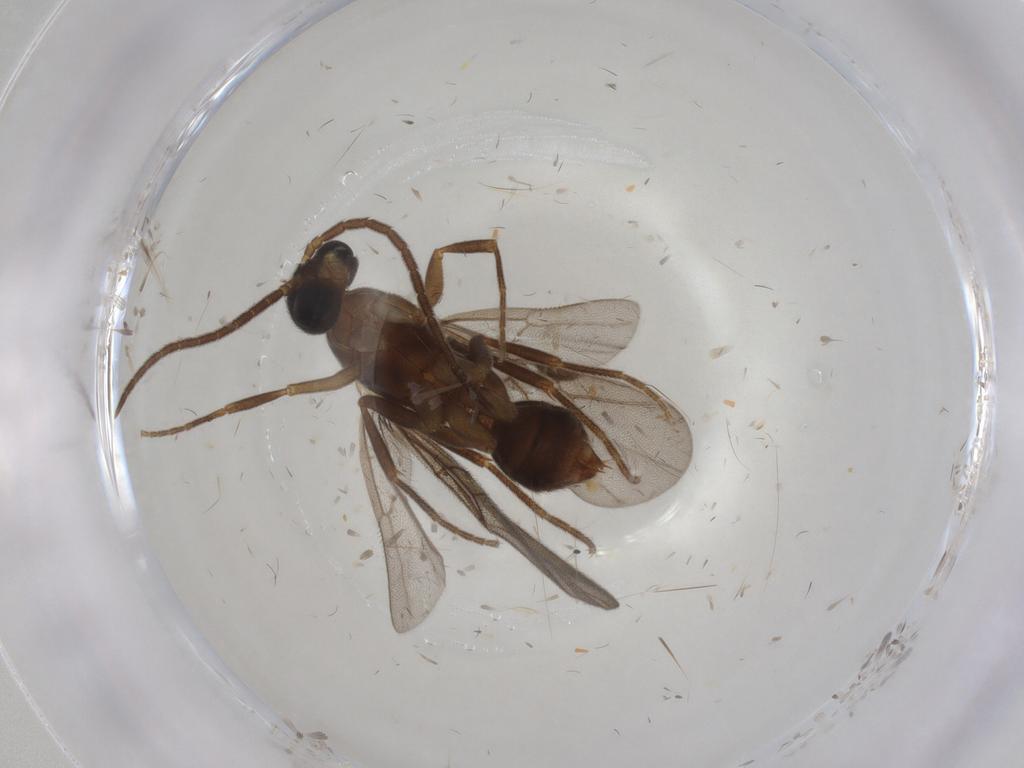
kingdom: Animalia
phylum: Arthropoda
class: Insecta
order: Hymenoptera
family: Formicidae
